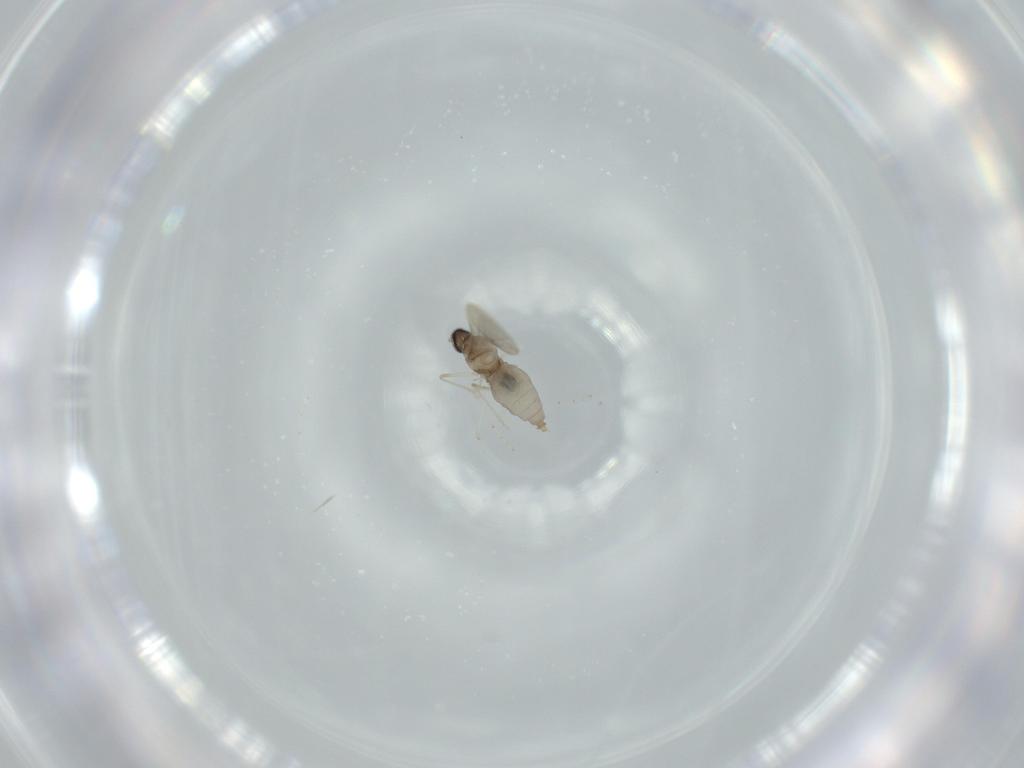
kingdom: Animalia
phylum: Arthropoda
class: Insecta
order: Diptera
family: Cecidomyiidae
